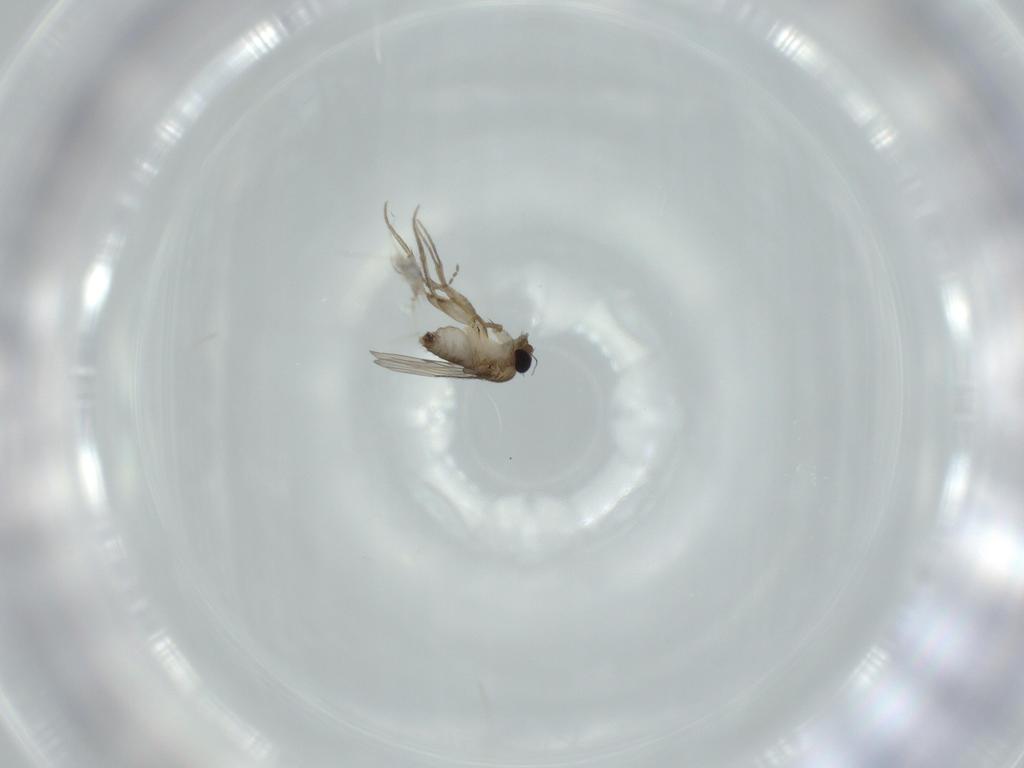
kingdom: Animalia
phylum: Arthropoda
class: Insecta
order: Diptera
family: Phoridae
